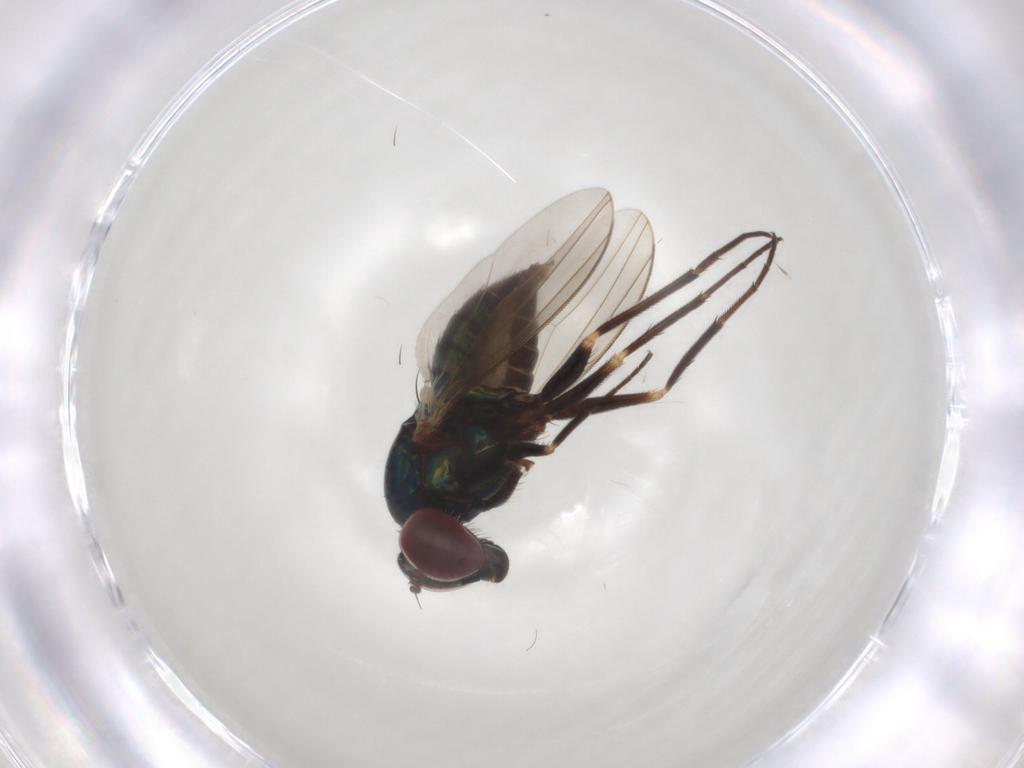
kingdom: Animalia
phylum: Arthropoda
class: Insecta
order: Diptera
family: Dolichopodidae
